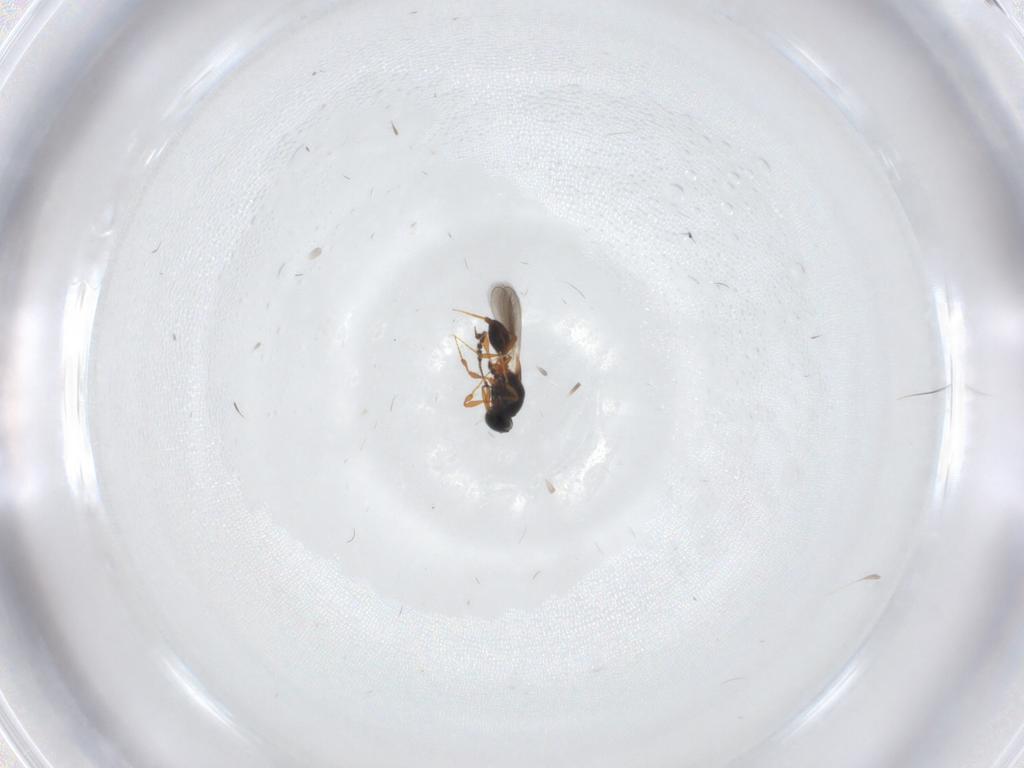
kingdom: Animalia
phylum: Arthropoda
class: Insecta
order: Hymenoptera
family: Platygastridae
